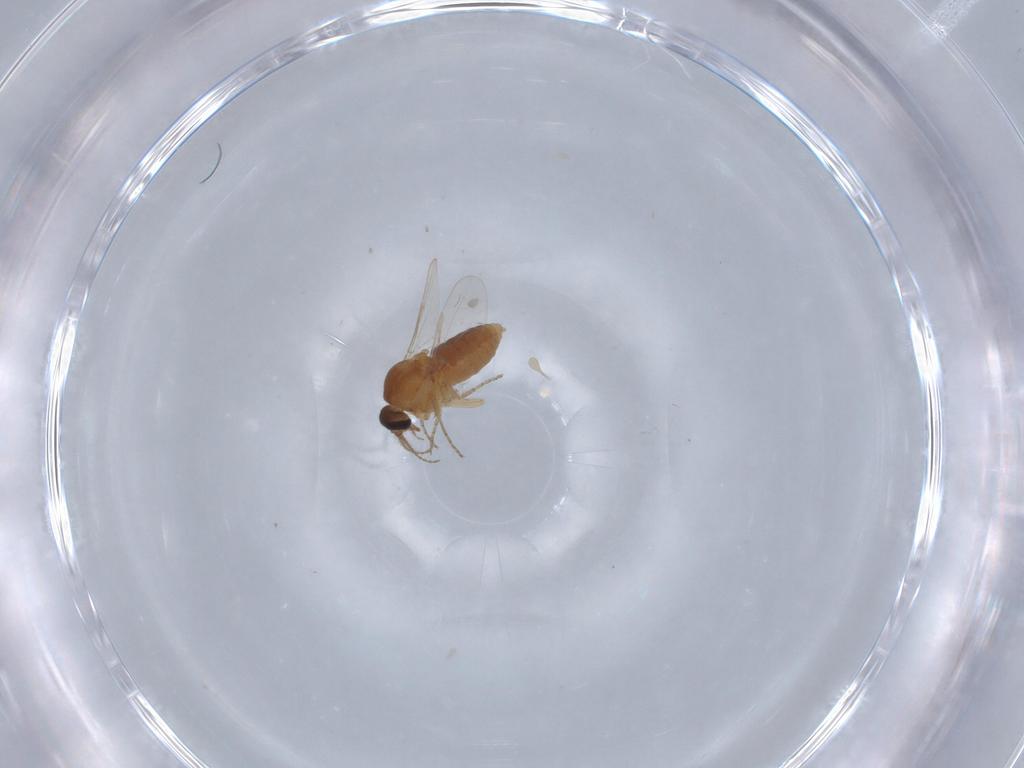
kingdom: Animalia
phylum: Arthropoda
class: Insecta
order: Diptera
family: Ceratopogonidae
